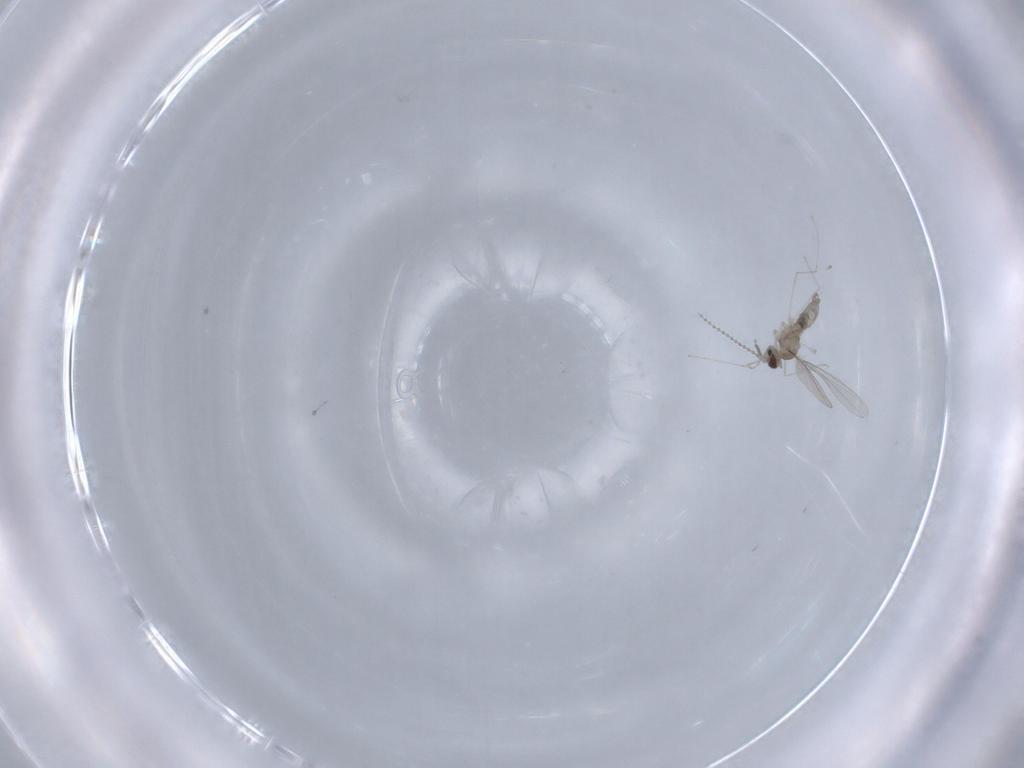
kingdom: Animalia
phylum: Arthropoda
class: Insecta
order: Diptera
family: Cecidomyiidae
